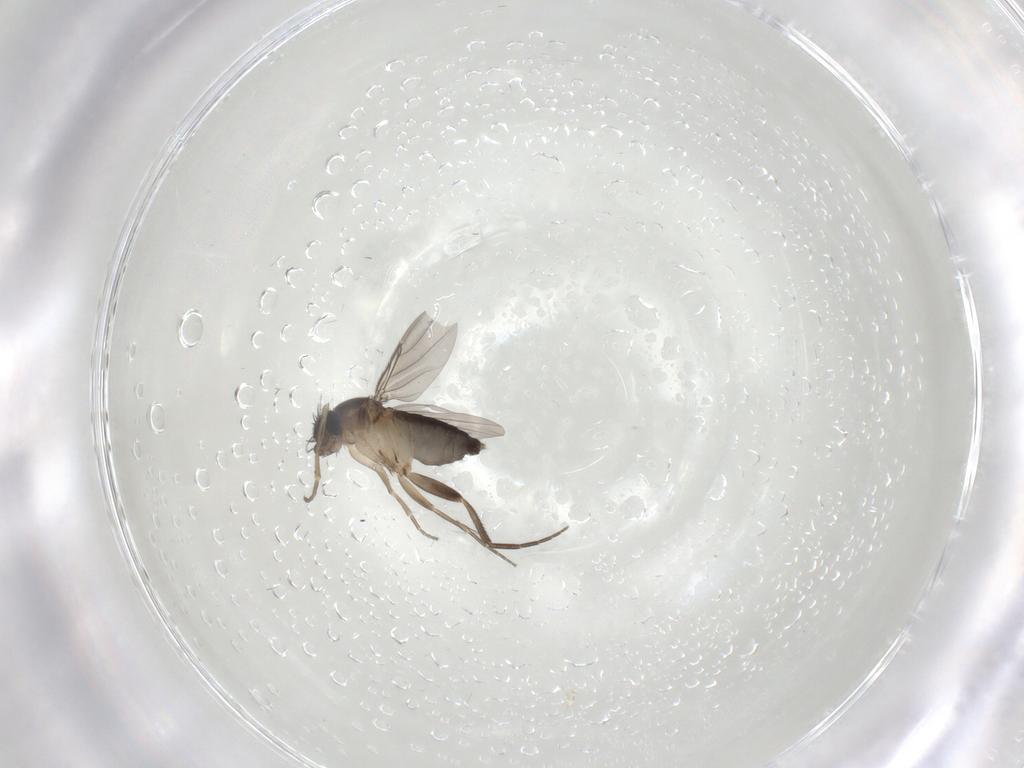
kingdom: Animalia
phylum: Arthropoda
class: Insecta
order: Diptera
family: Phoridae
